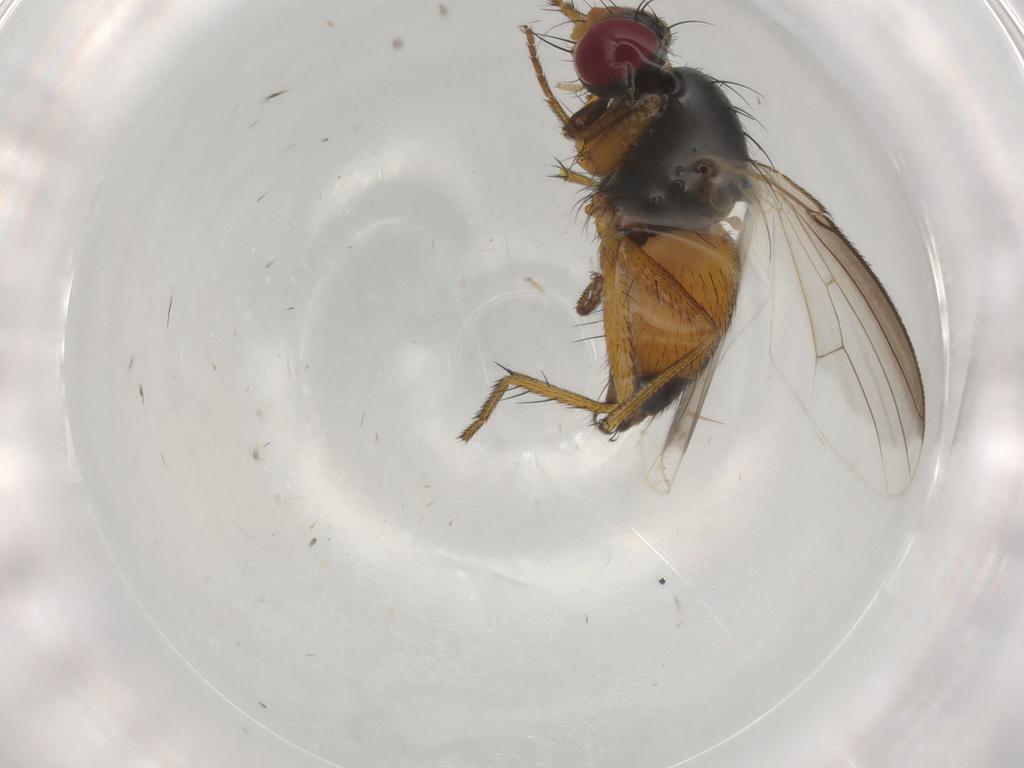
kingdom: Animalia
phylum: Arthropoda
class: Insecta
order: Diptera
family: Muscidae
